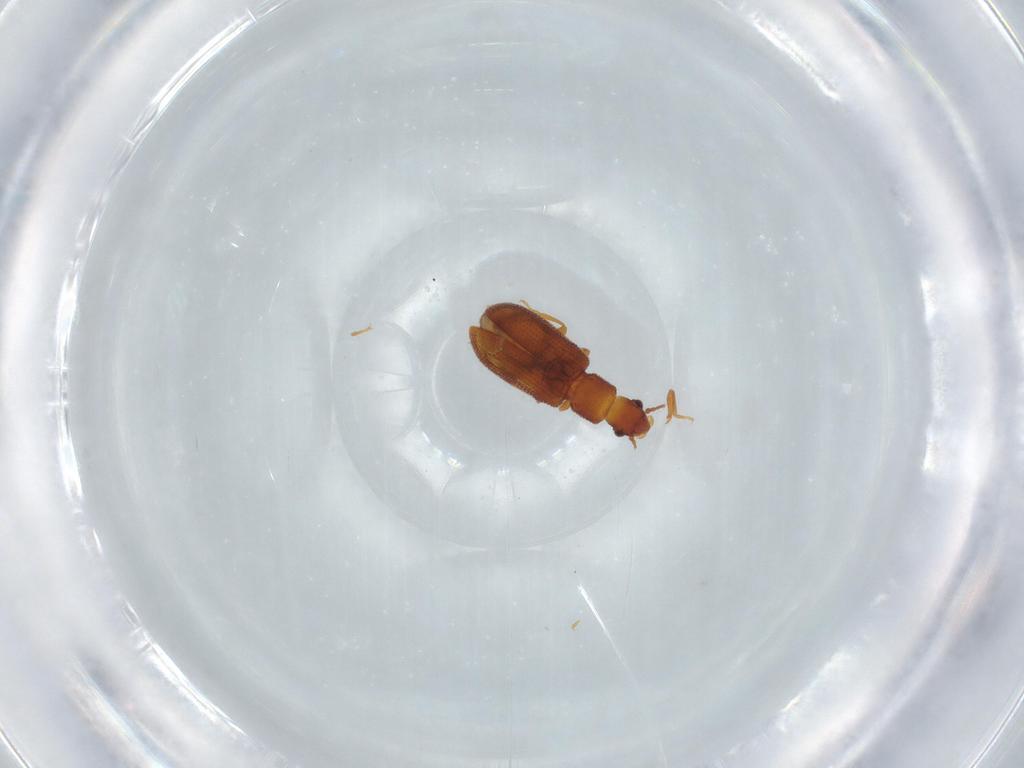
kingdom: Animalia
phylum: Arthropoda
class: Insecta
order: Coleoptera
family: Mycetophagidae
